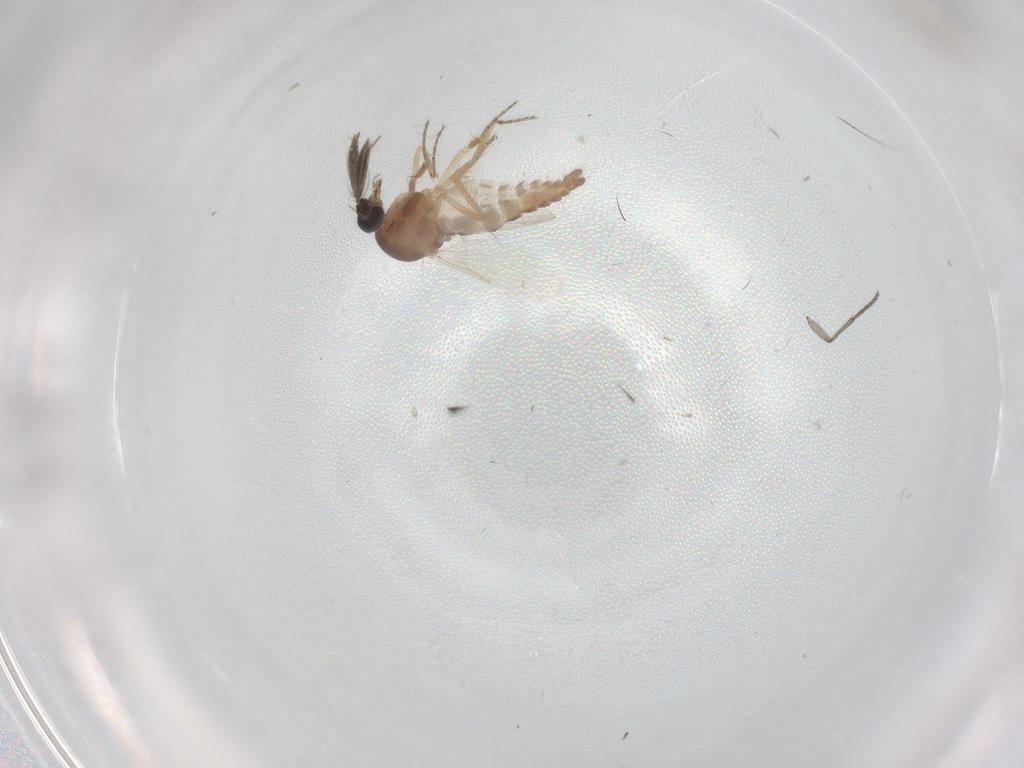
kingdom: Animalia
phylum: Arthropoda
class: Insecta
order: Diptera
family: Ceratopogonidae
